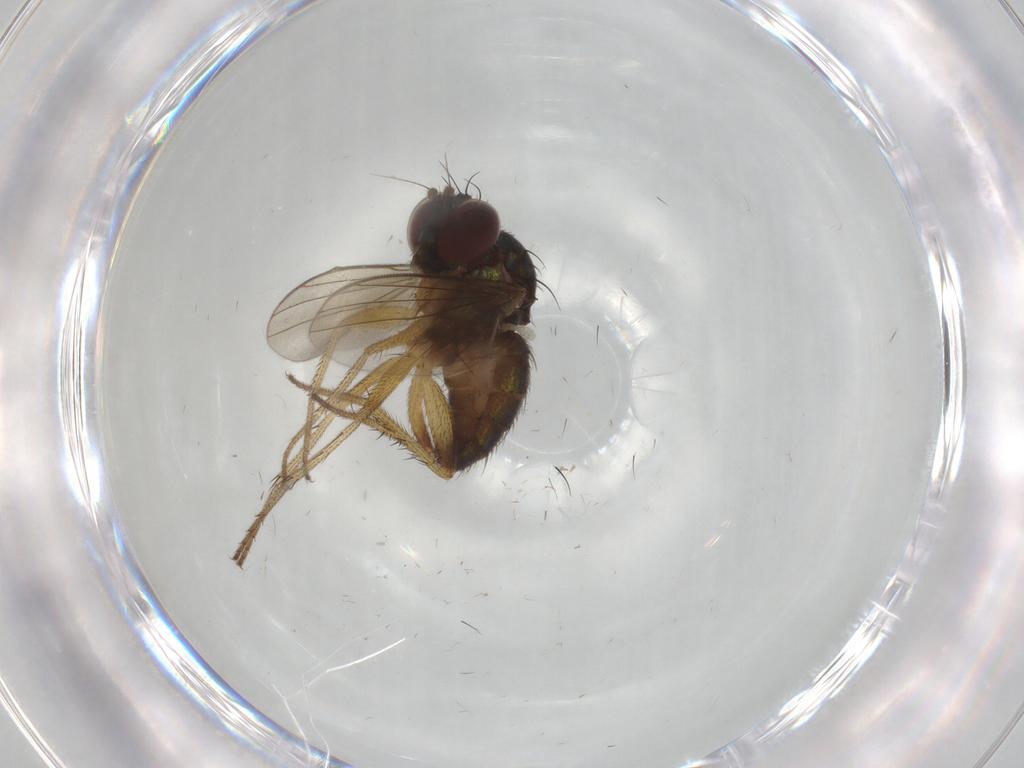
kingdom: Animalia
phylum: Arthropoda
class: Insecta
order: Diptera
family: Dolichopodidae
